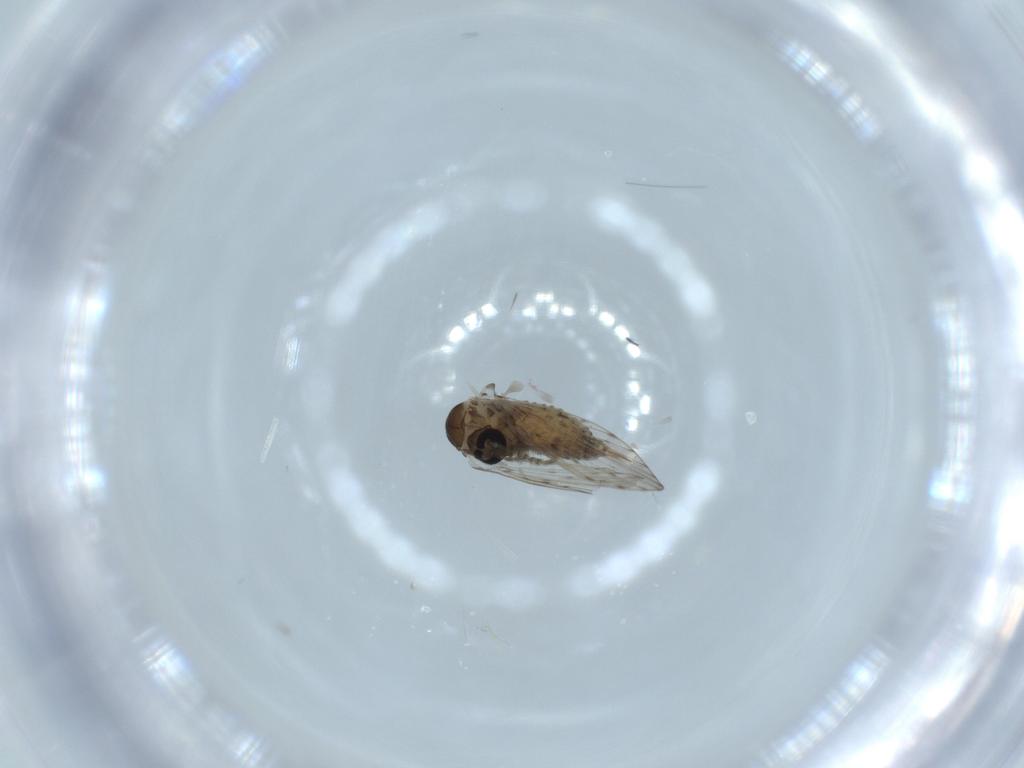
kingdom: Animalia
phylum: Arthropoda
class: Insecta
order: Diptera
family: Psychodidae
